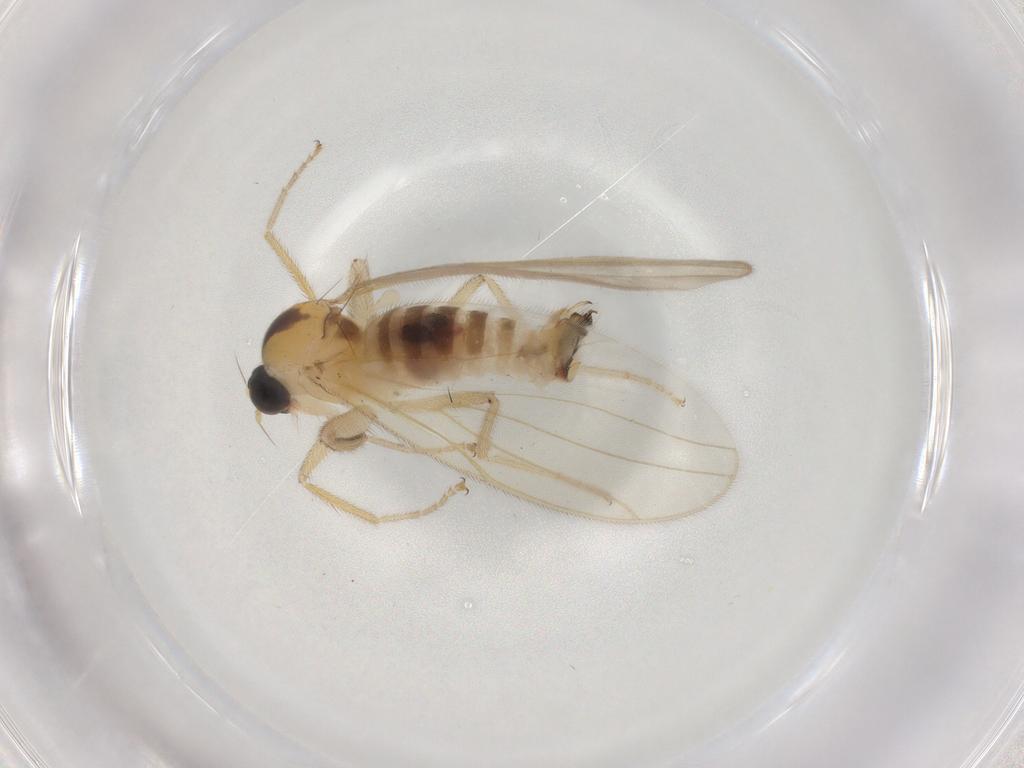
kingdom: Animalia
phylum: Arthropoda
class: Insecta
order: Diptera
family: Hybotidae
